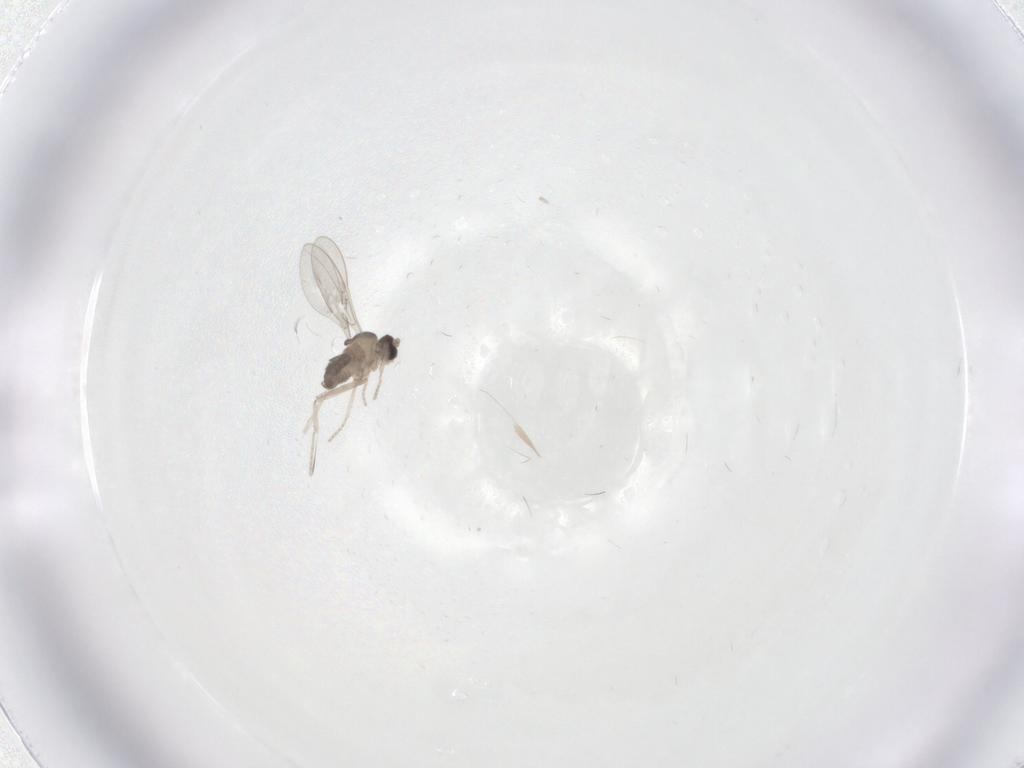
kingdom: Animalia
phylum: Arthropoda
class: Insecta
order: Diptera
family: Cecidomyiidae
